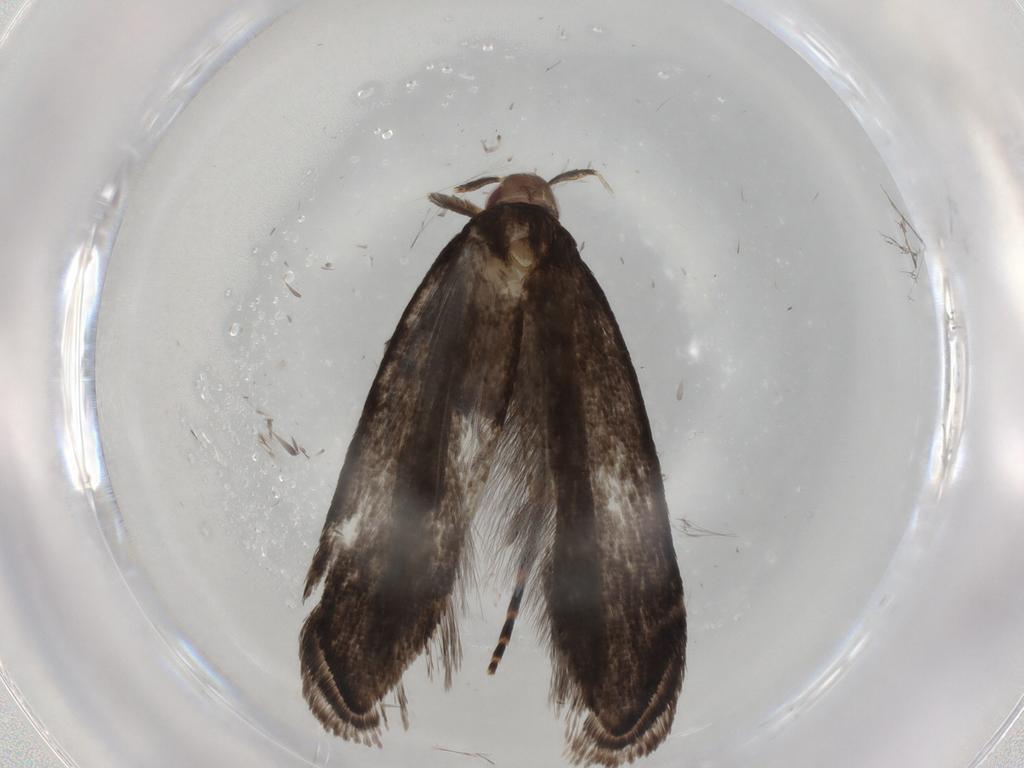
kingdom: Animalia
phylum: Arthropoda
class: Insecta
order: Lepidoptera
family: Gelechiidae
